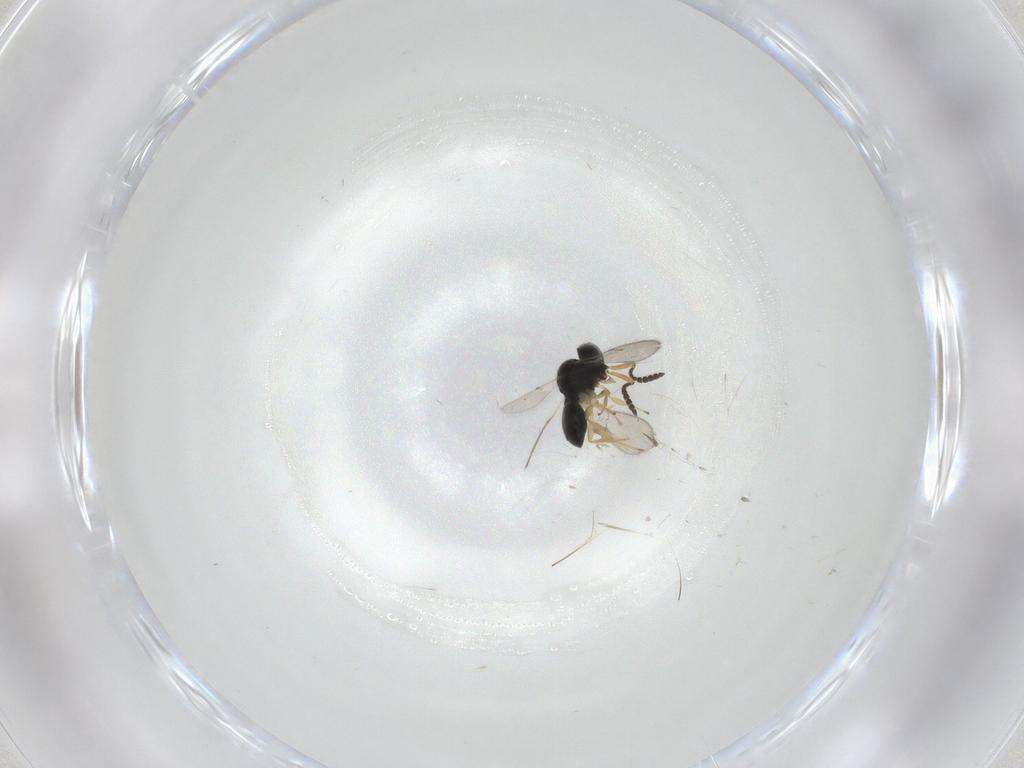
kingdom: Animalia
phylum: Arthropoda
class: Insecta
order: Hymenoptera
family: Scelionidae
